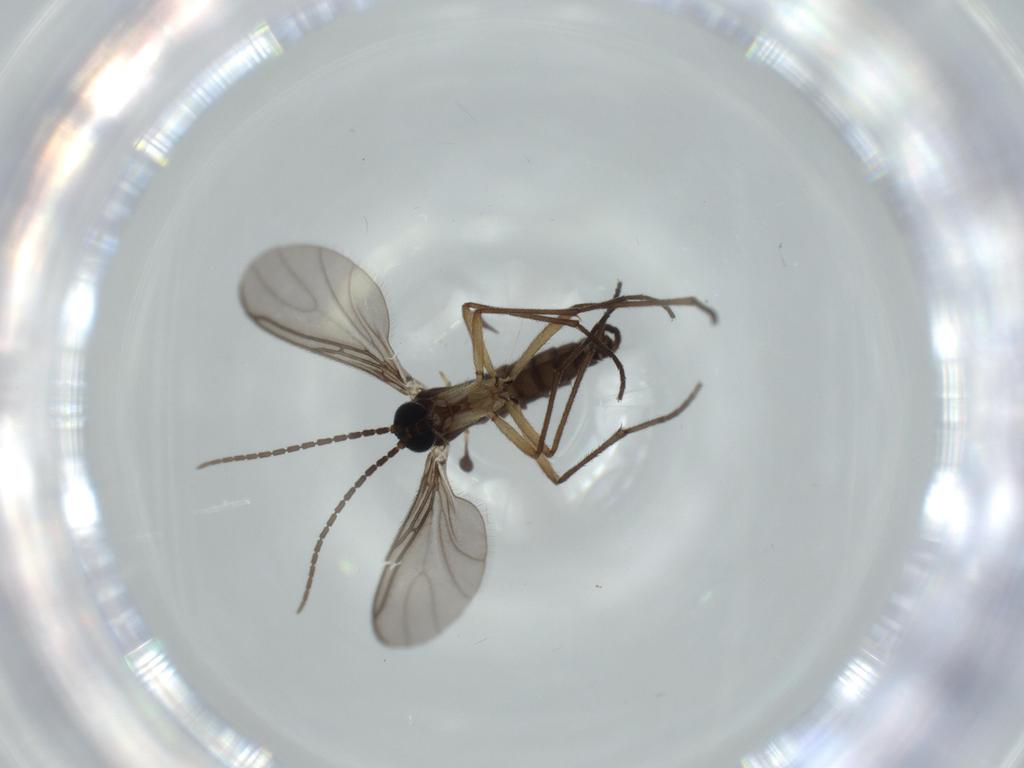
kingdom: Animalia
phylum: Arthropoda
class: Insecta
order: Diptera
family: Sciaridae
